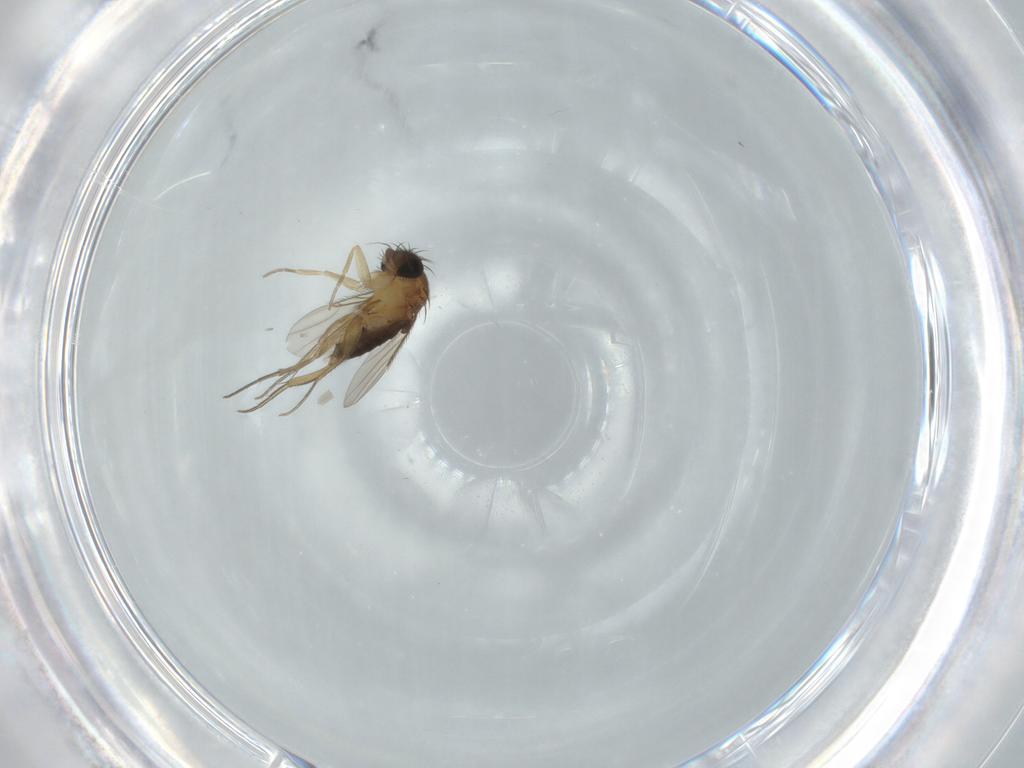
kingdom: Animalia
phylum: Arthropoda
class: Insecta
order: Diptera
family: Phoridae
